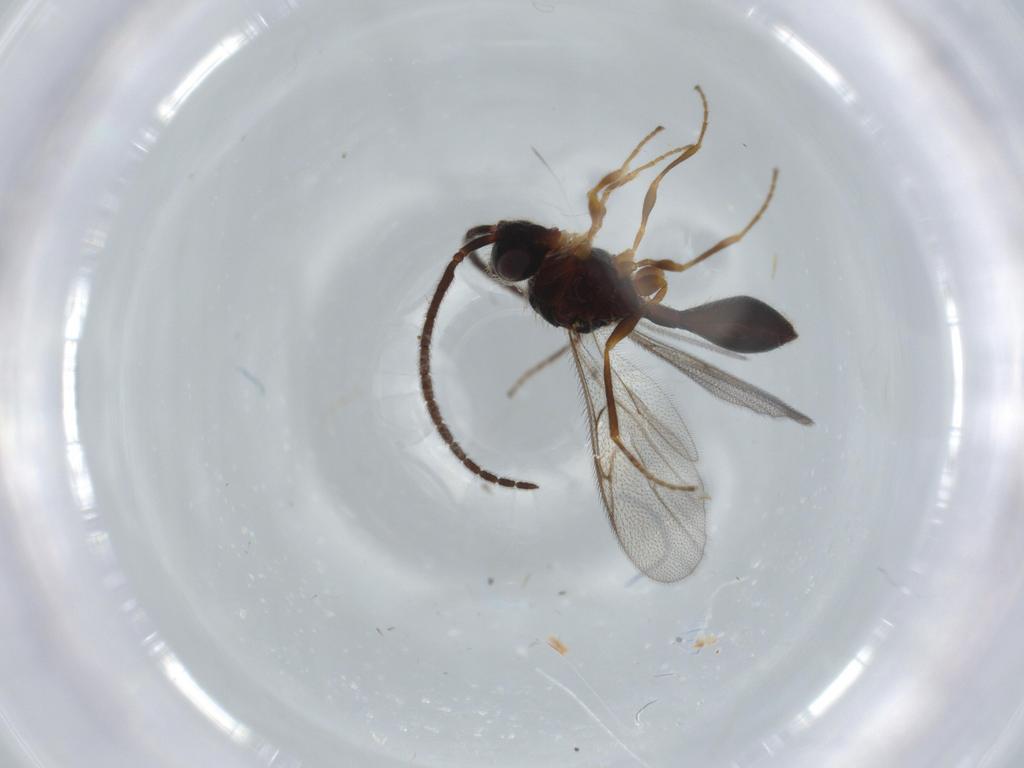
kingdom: Animalia
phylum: Arthropoda
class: Insecta
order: Hymenoptera
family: Diapriidae
